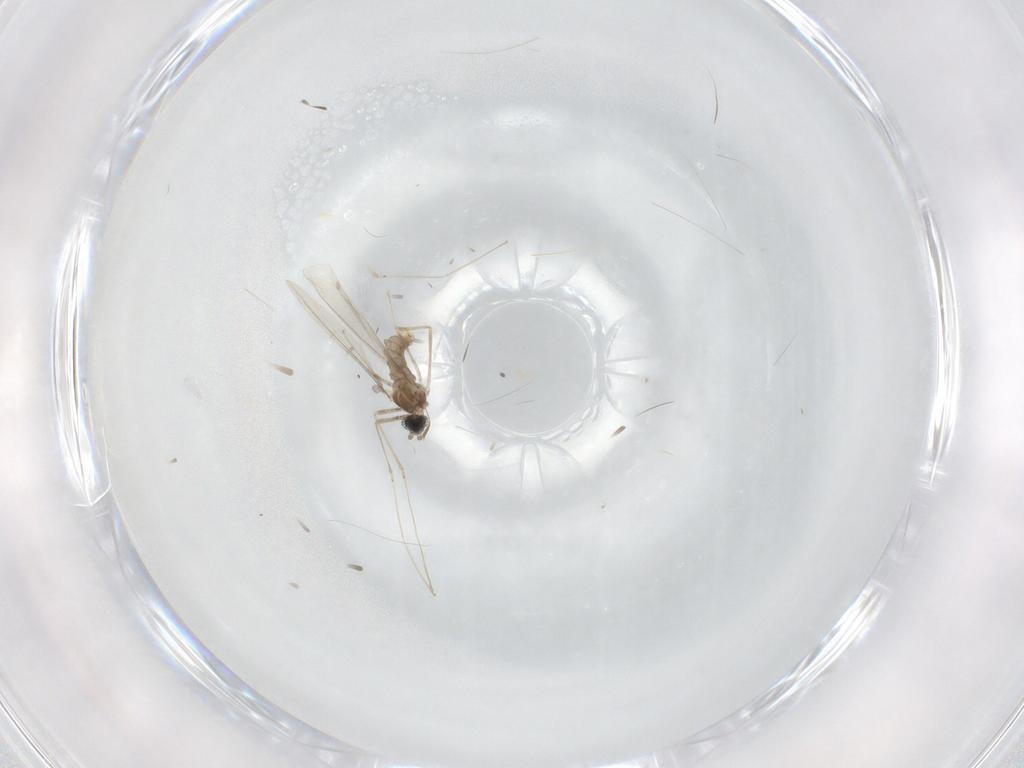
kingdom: Animalia
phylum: Arthropoda
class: Insecta
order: Diptera
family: Cecidomyiidae
